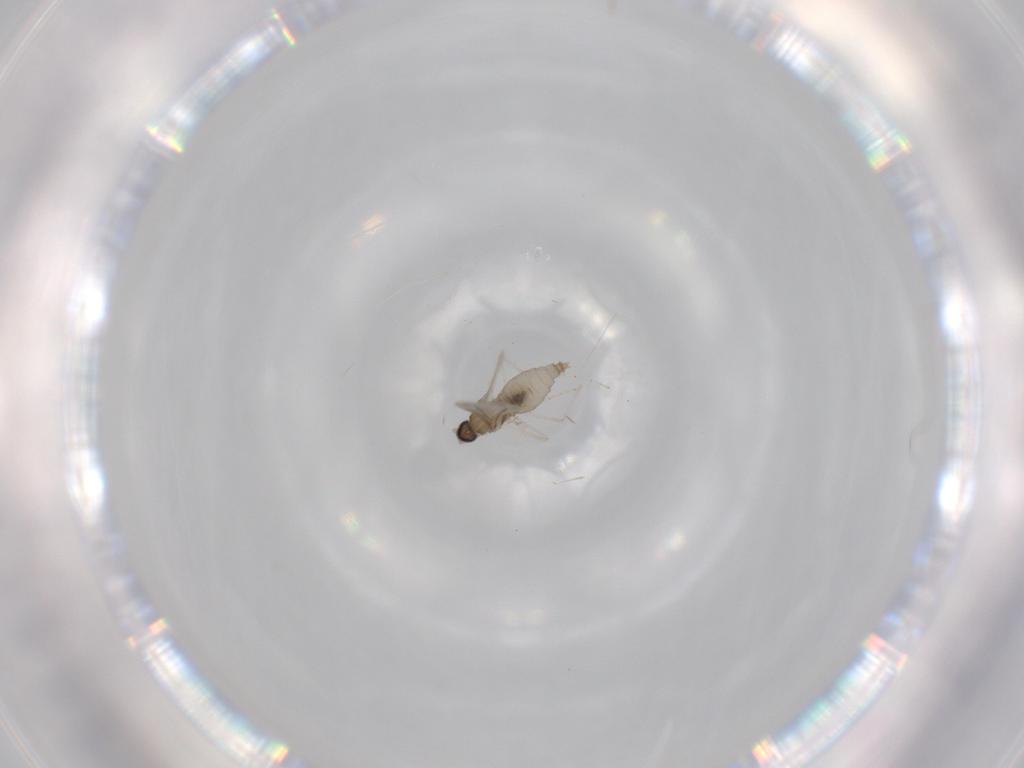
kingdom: Animalia
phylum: Arthropoda
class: Insecta
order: Diptera
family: Cecidomyiidae
